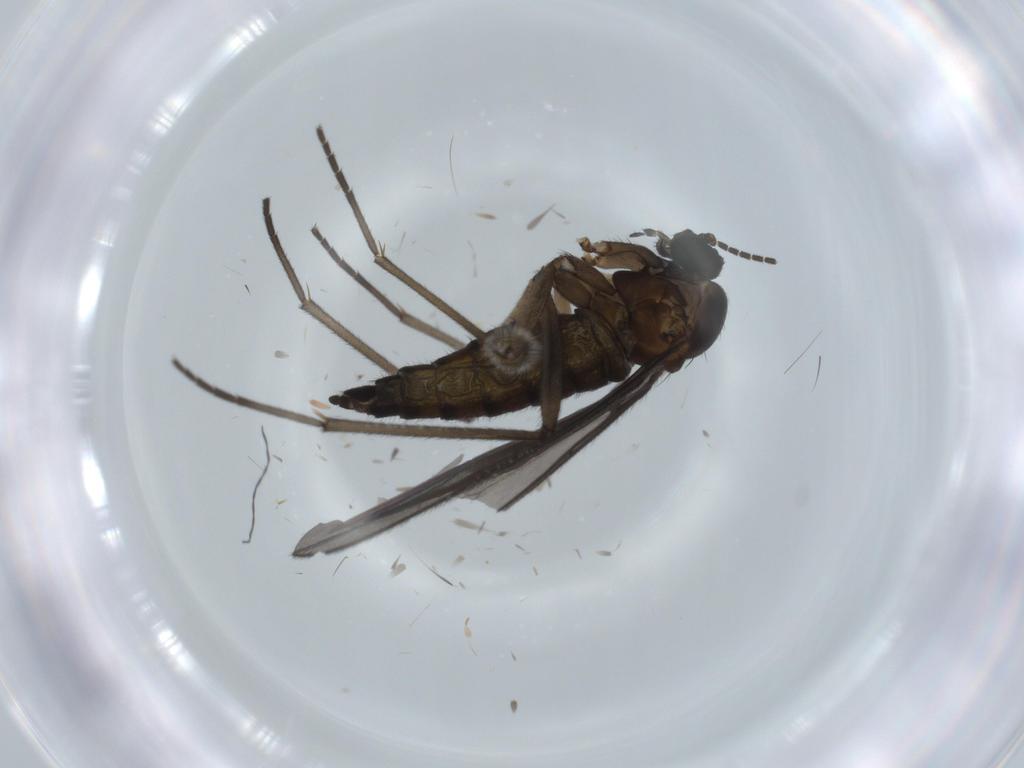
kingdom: Animalia
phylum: Arthropoda
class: Insecta
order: Diptera
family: Sciaridae
